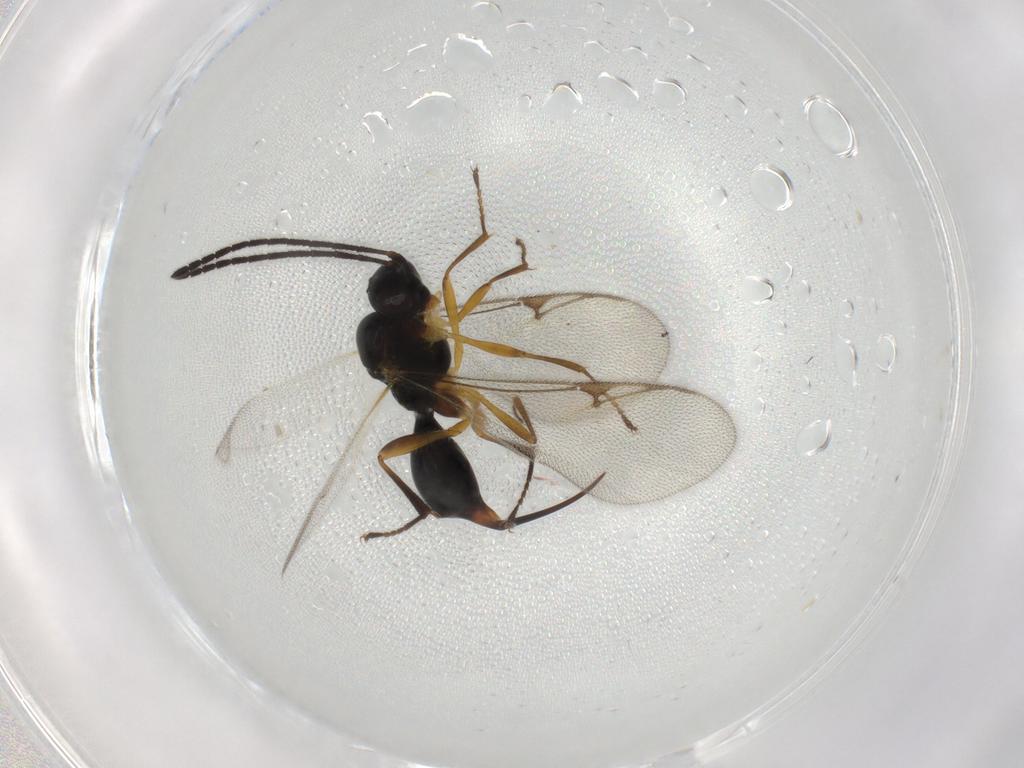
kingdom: Animalia
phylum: Arthropoda
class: Insecta
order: Hymenoptera
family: Proctotrupidae
